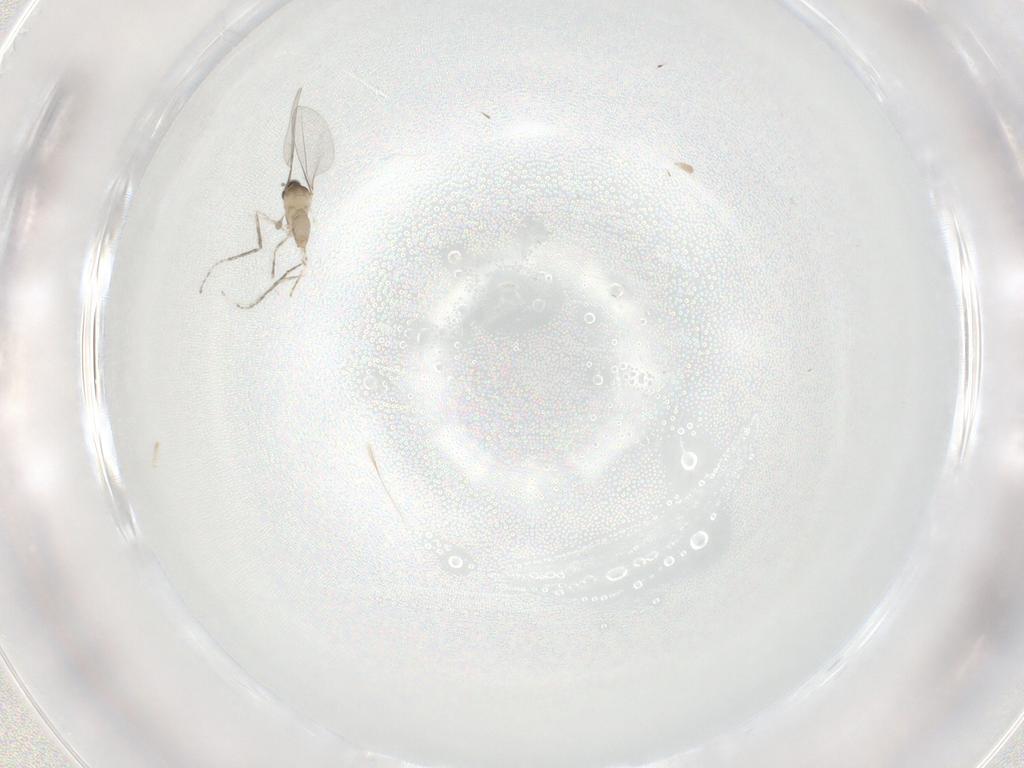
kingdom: Animalia
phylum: Arthropoda
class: Insecta
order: Diptera
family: Cecidomyiidae
